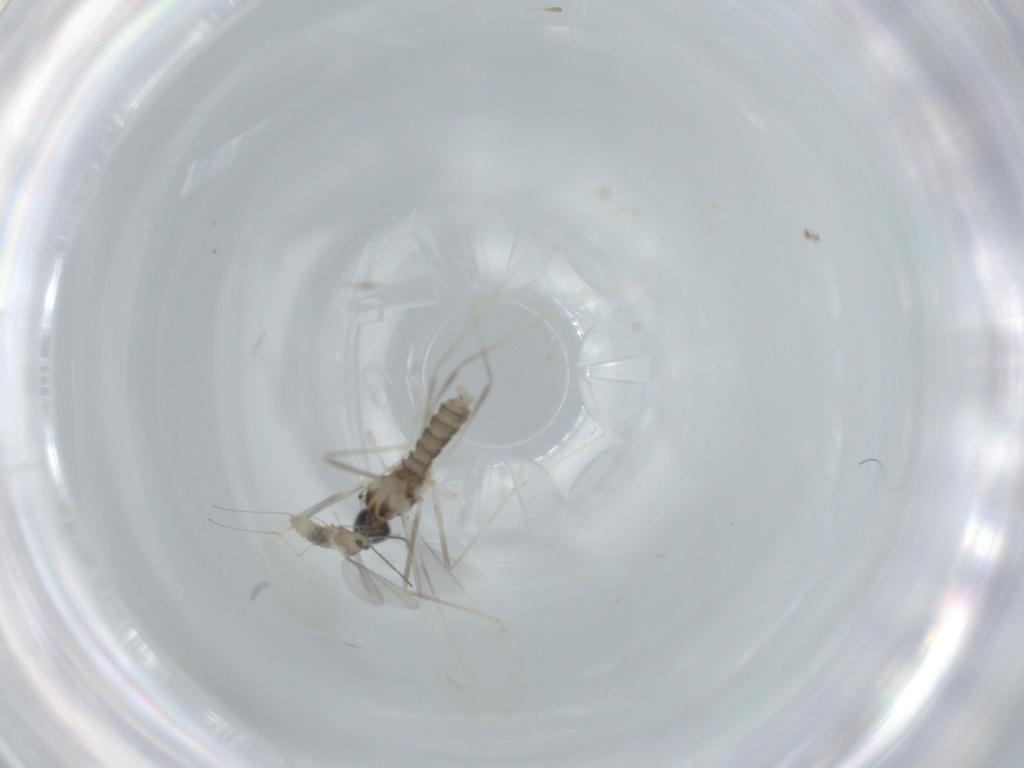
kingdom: Animalia
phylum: Arthropoda
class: Insecta
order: Diptera
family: Cecidomyiidae
